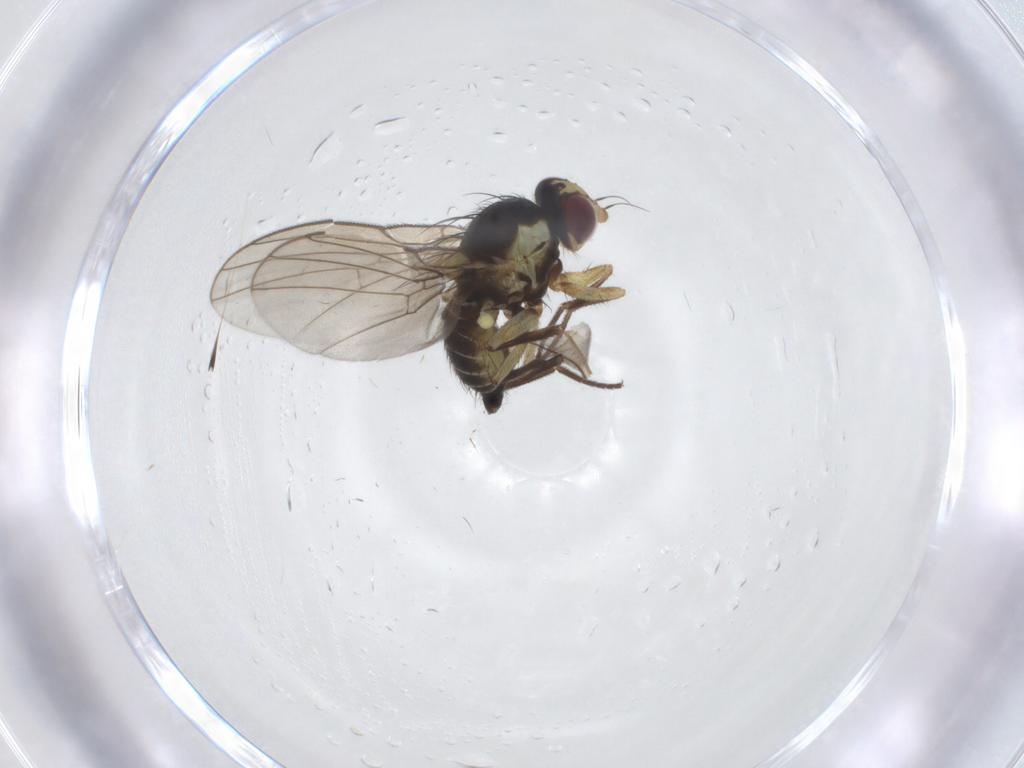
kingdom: Animalia
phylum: Arthropoda
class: Insecta
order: Diptera
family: Agromyzidae
